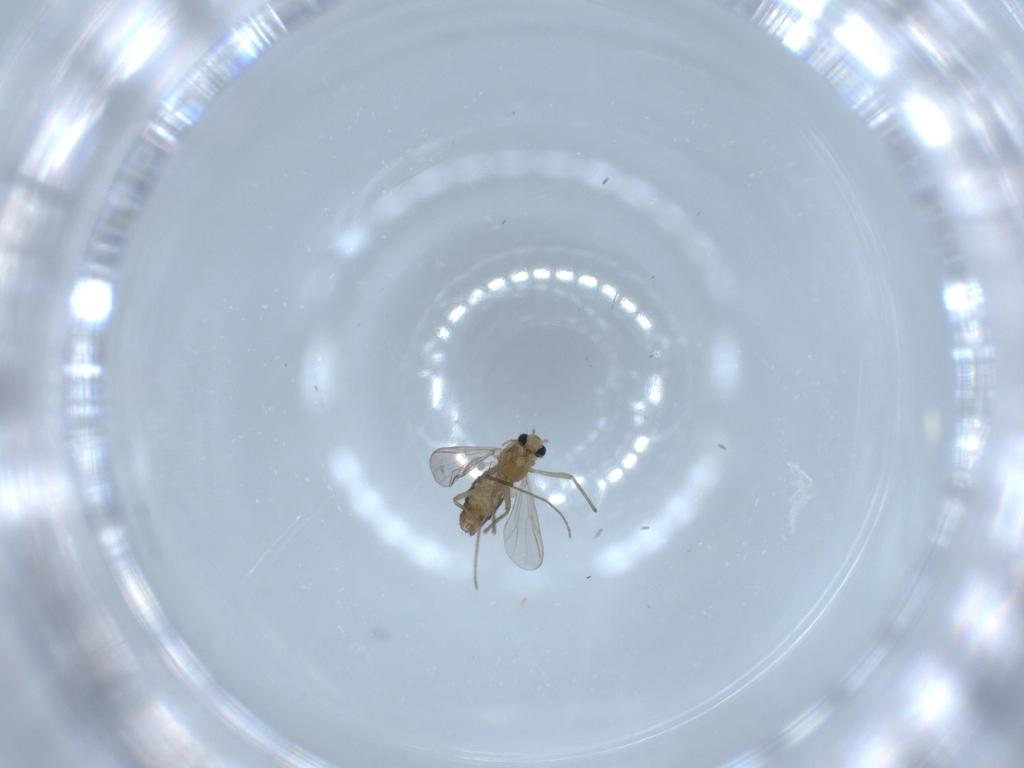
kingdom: Animalia
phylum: Arthropoda
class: Insecta
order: Diptera
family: Chironomidae
